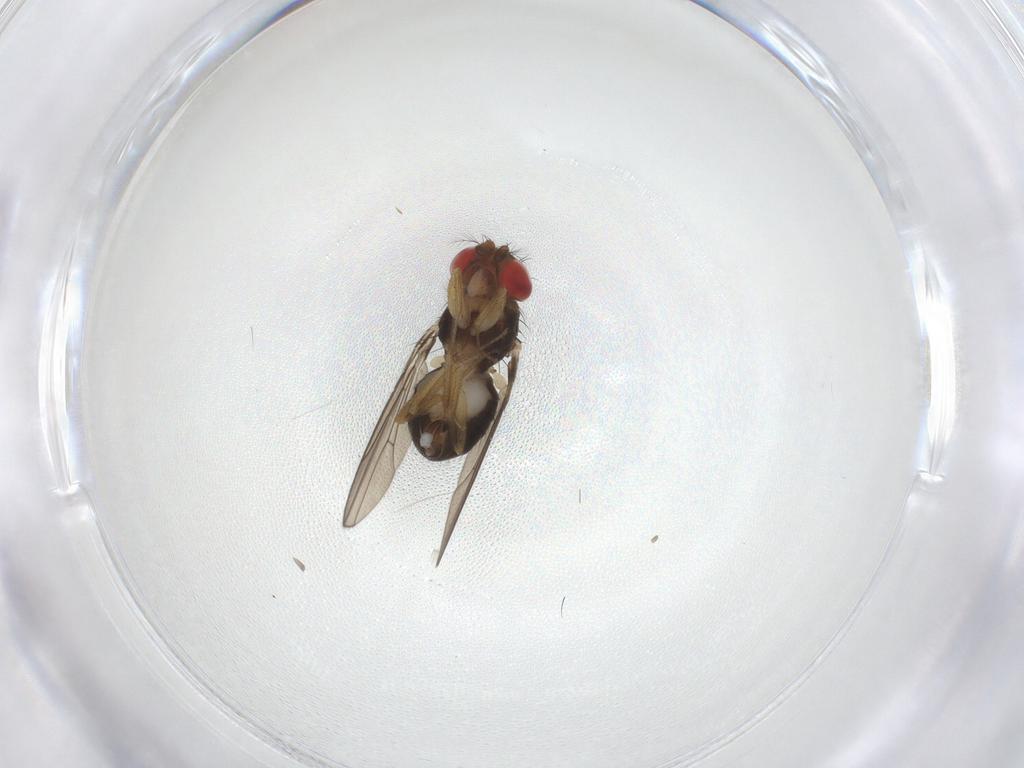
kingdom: Animalia
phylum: Arthropoda
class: Insecta
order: Diptera
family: Drosophilidae
